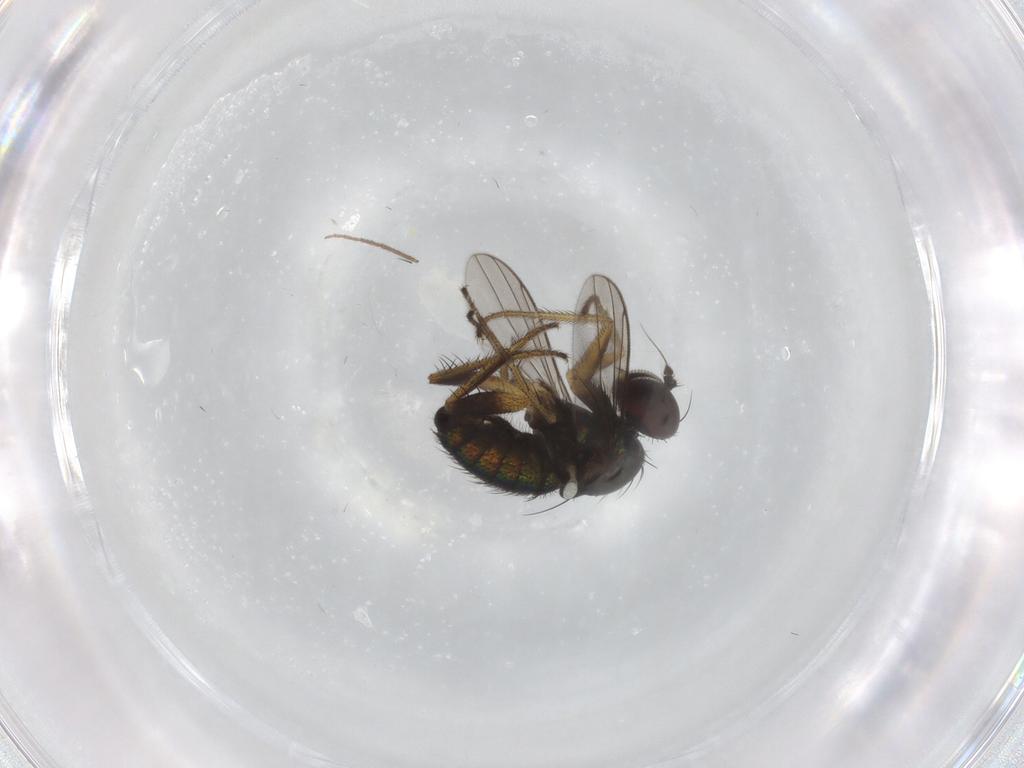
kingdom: Animalia
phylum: Arthropoda
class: Insecta
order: Diptera
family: Dolichopodidae
